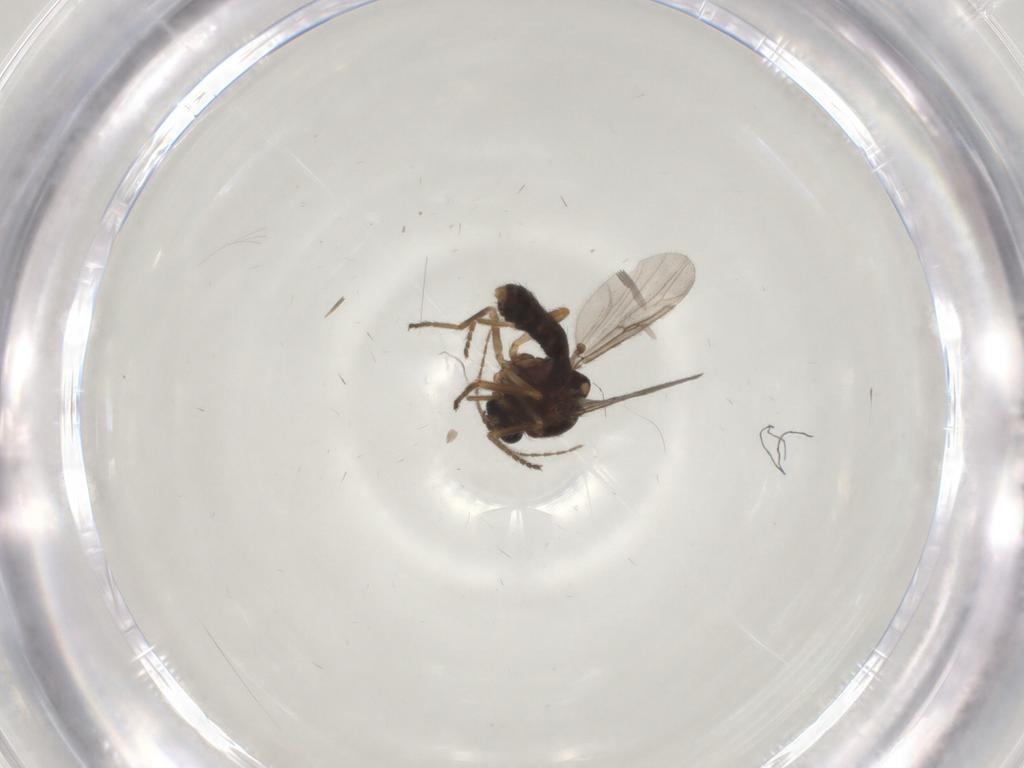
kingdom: Animalia
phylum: Arthropoda
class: Insecta
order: Diptera
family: Ceratopogonidae
